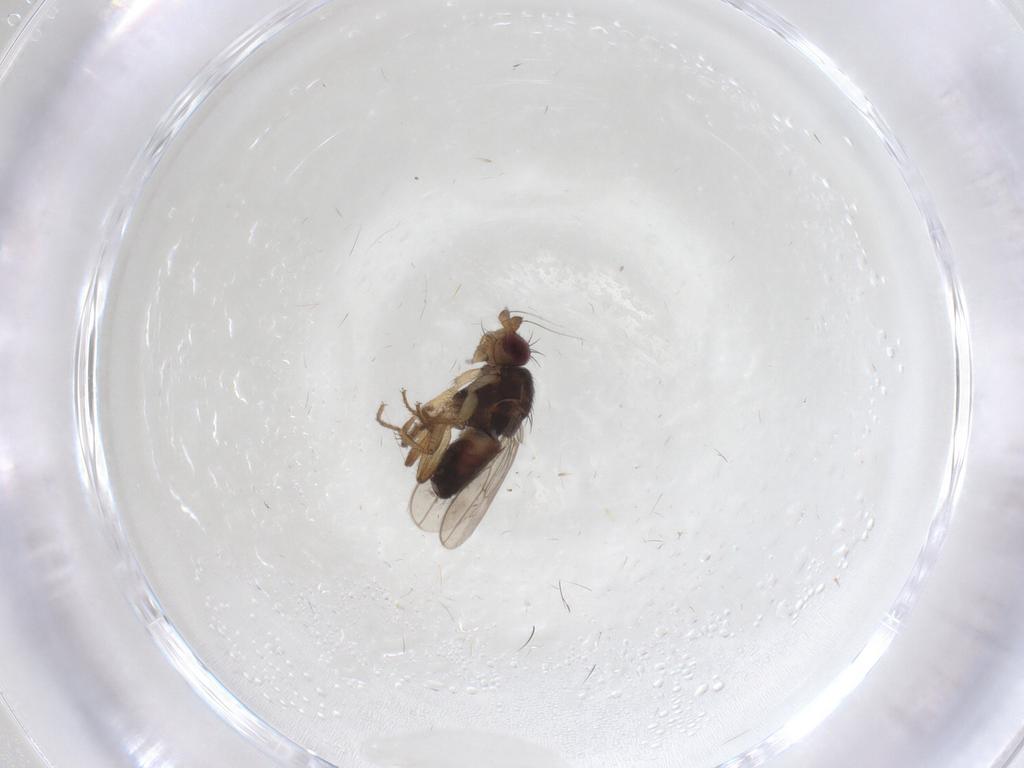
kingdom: Animalia
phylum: Arthropoda
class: Insecta
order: Diptera
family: Sphaeroceridae
